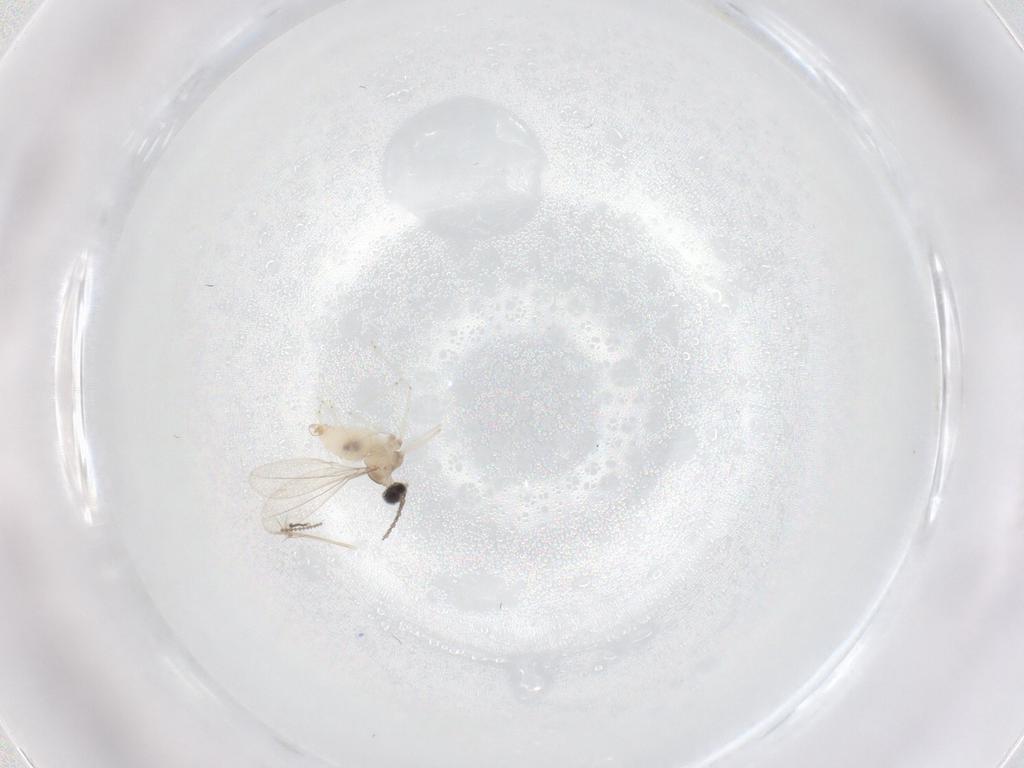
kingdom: Animalia
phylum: Arthropoda
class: Insecta
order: Diptera
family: Cecidomyiidae
